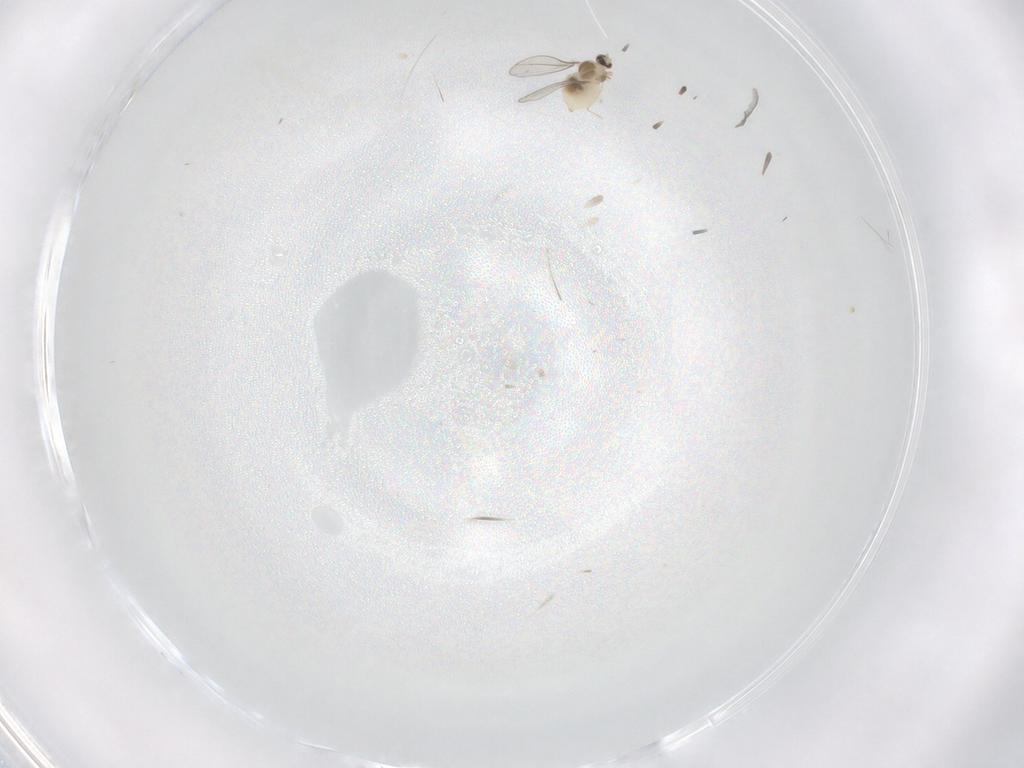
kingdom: Animalia
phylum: Arthropoda
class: Insecta
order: Diptera
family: Cecidomyiidae
